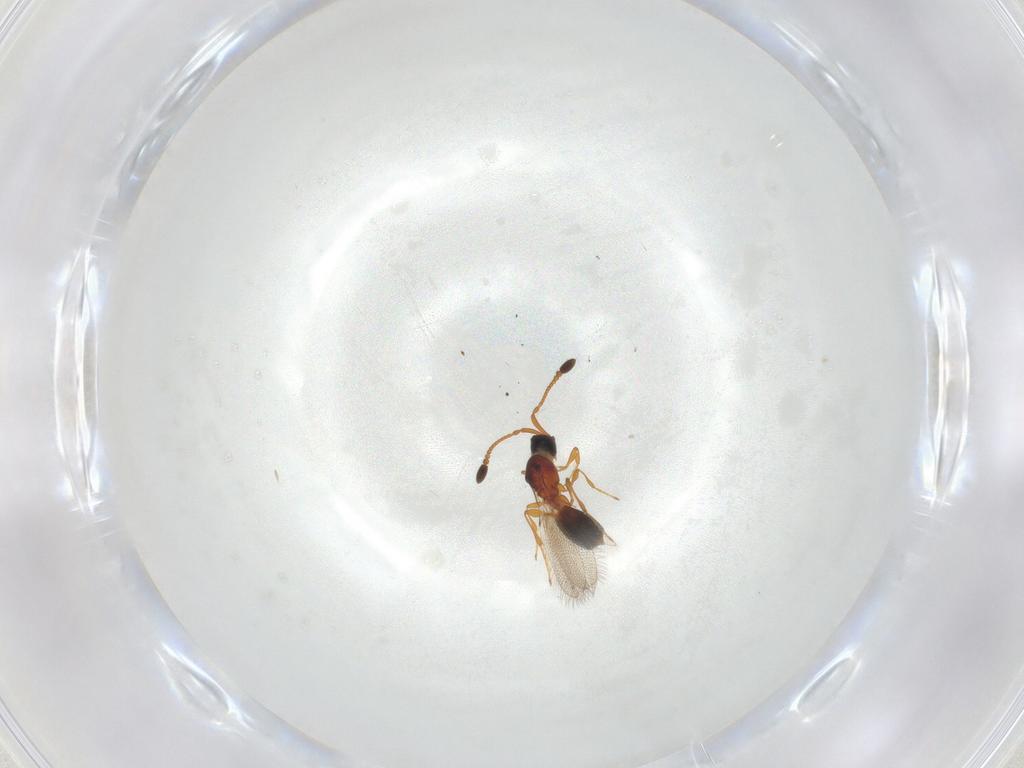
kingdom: Animalia
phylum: Arthropoda
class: Insecta
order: Hymenoptera
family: Diapriidae
